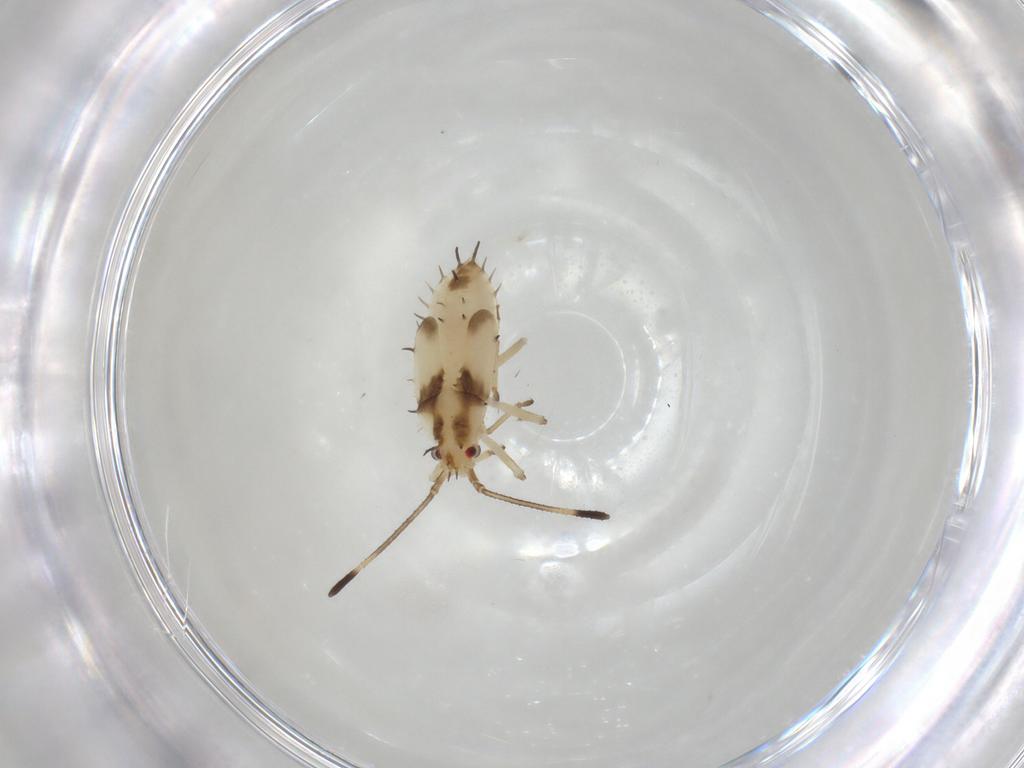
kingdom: Animalia
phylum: Arthropoda
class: Insecta
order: Hemiptera
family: Tingidae
